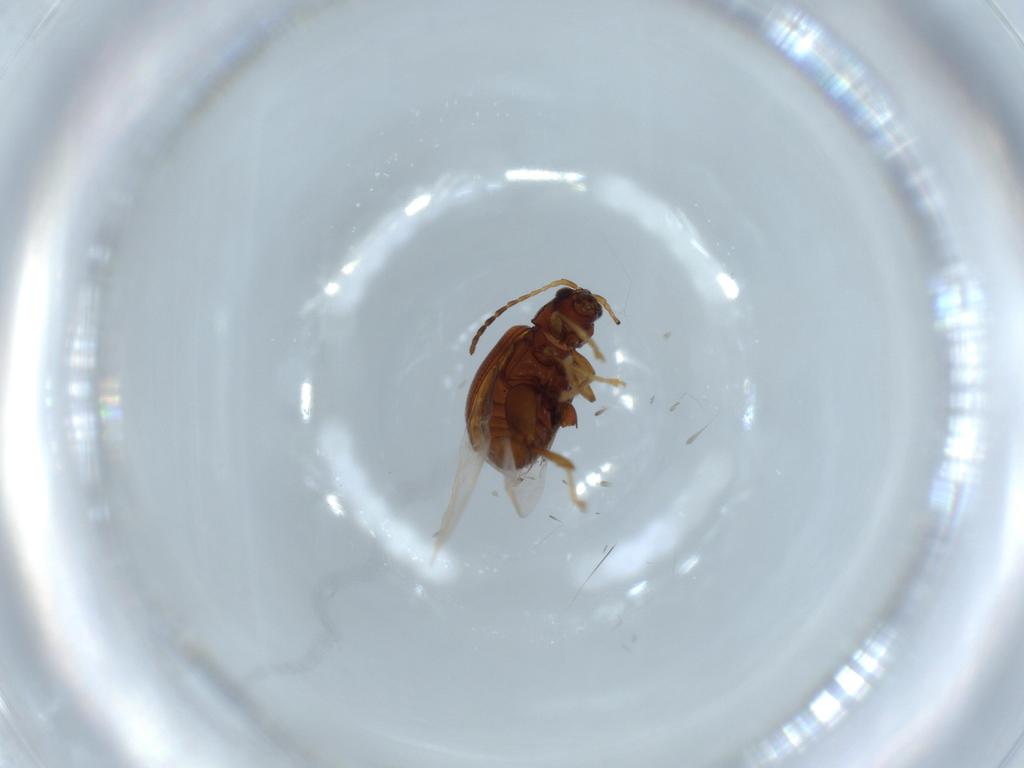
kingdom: Animalia
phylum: Arthropoda
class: Insecta
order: Coleoptera
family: Chrysomelidae
